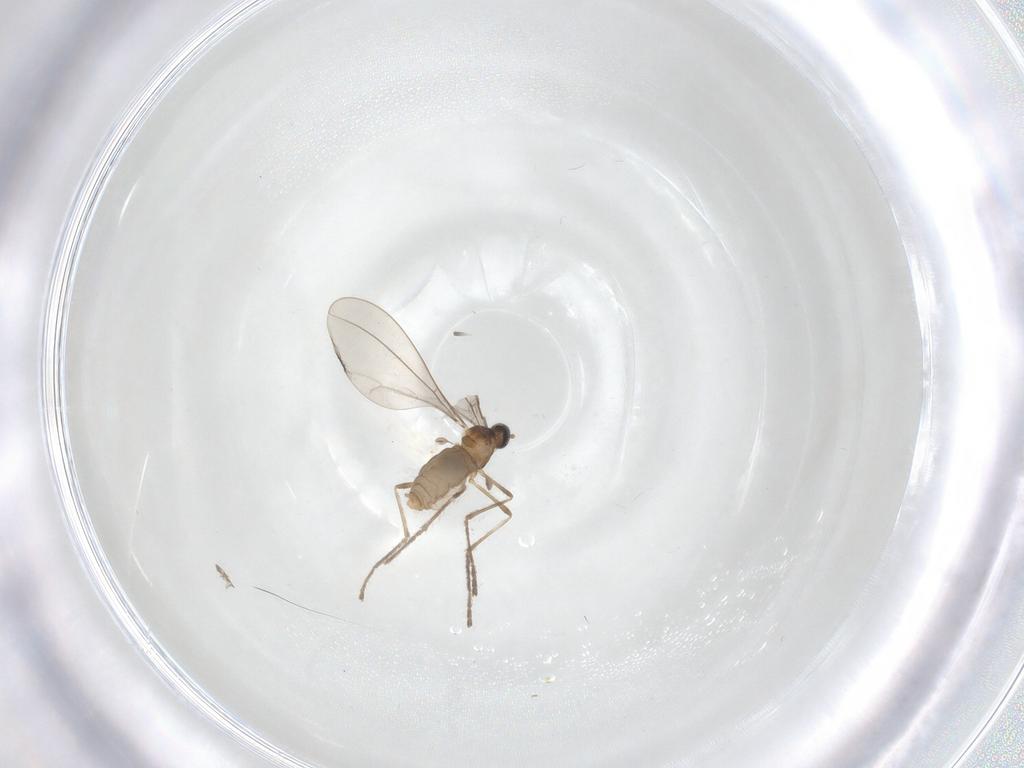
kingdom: Animalia
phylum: Arthropoda
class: Insecta
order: Diptera
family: Cecidomyiidae
